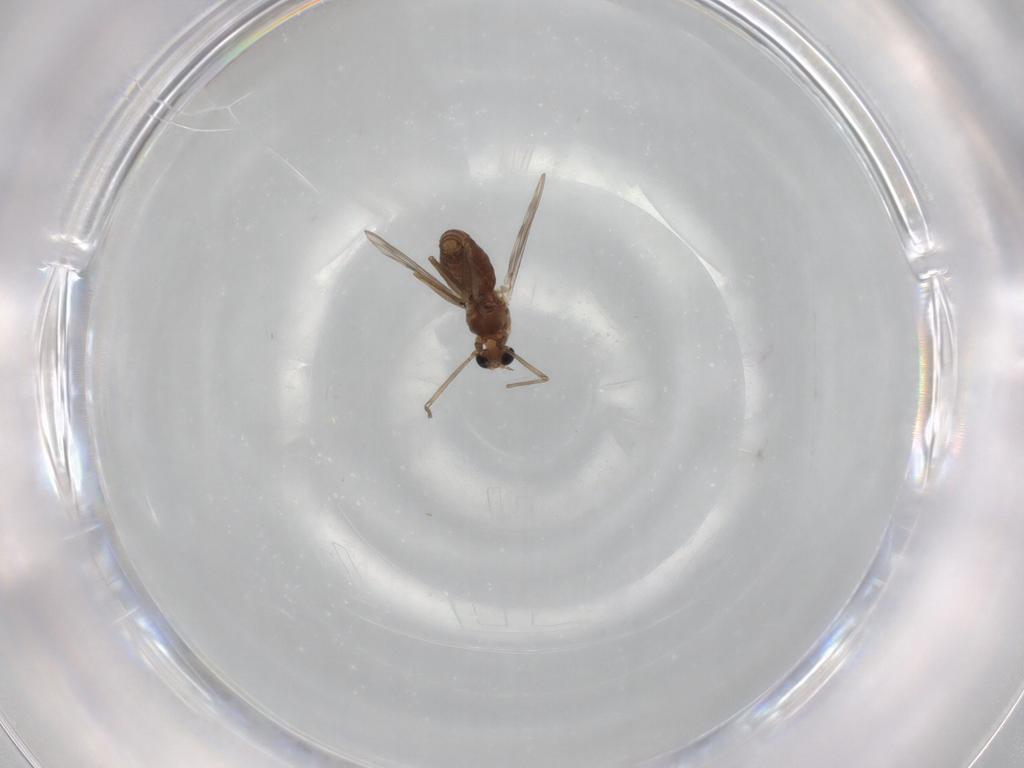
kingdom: Animalia
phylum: Arthropoda
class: Insecta
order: Diptera
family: Chironomidae
